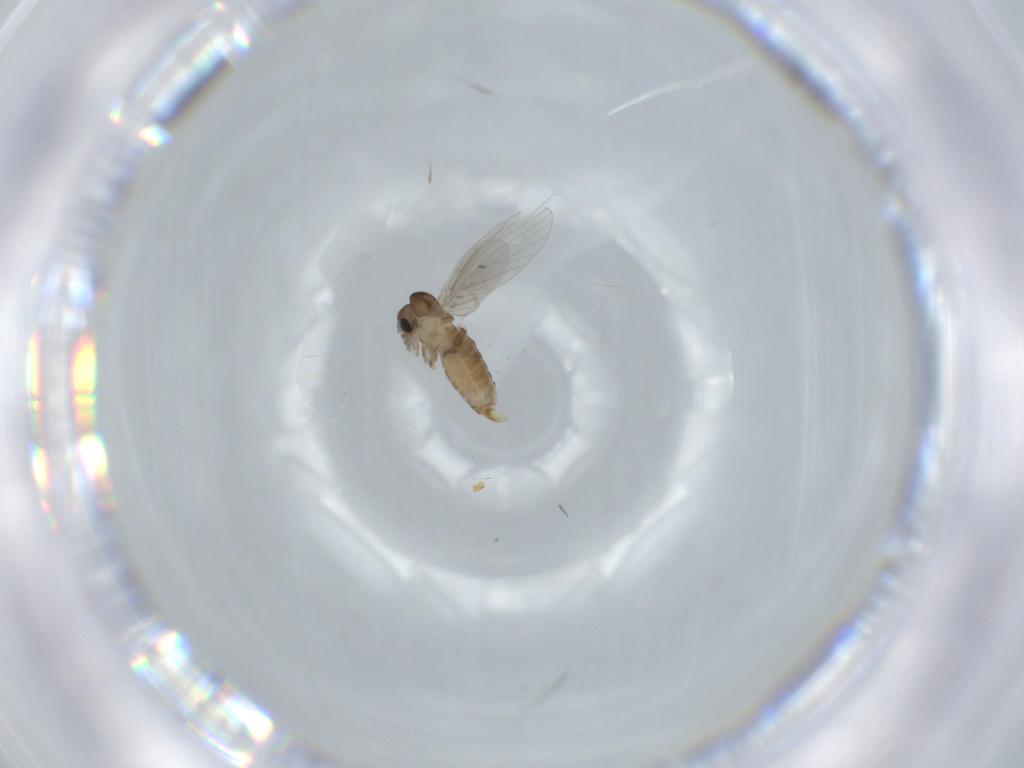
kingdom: Animalia
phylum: Arthropoda
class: Insecta
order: Diptera
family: Psychodidae
